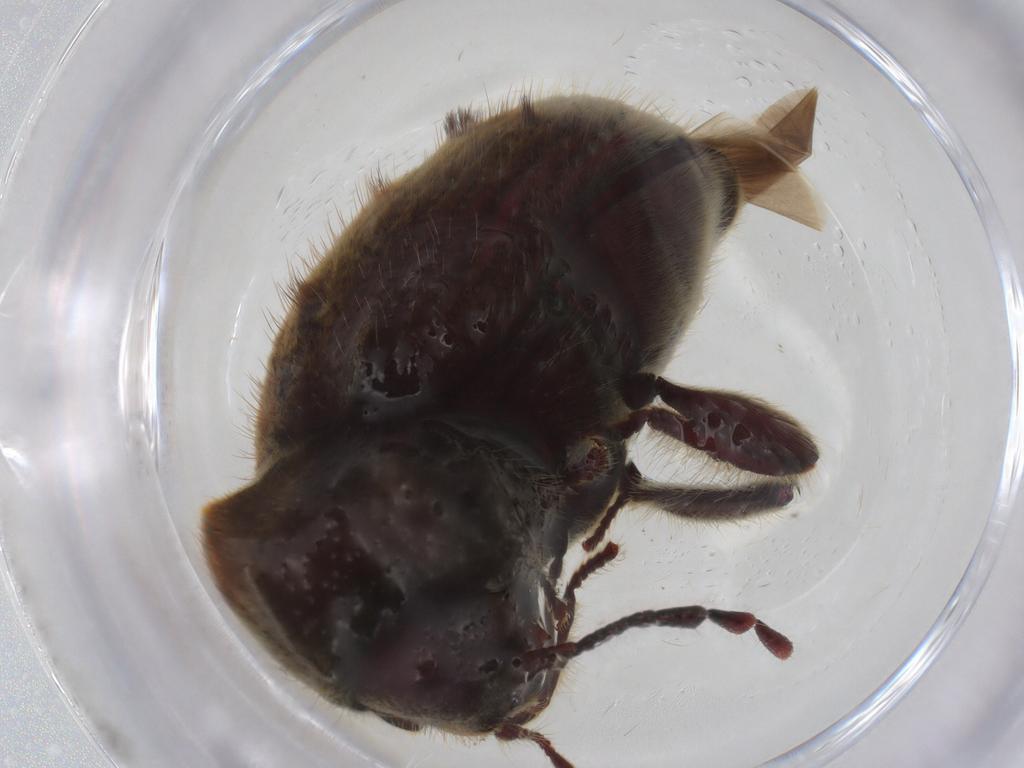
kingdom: Animalia
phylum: Arthropoda
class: Insecta
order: Coleoptera
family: Ptinidae
